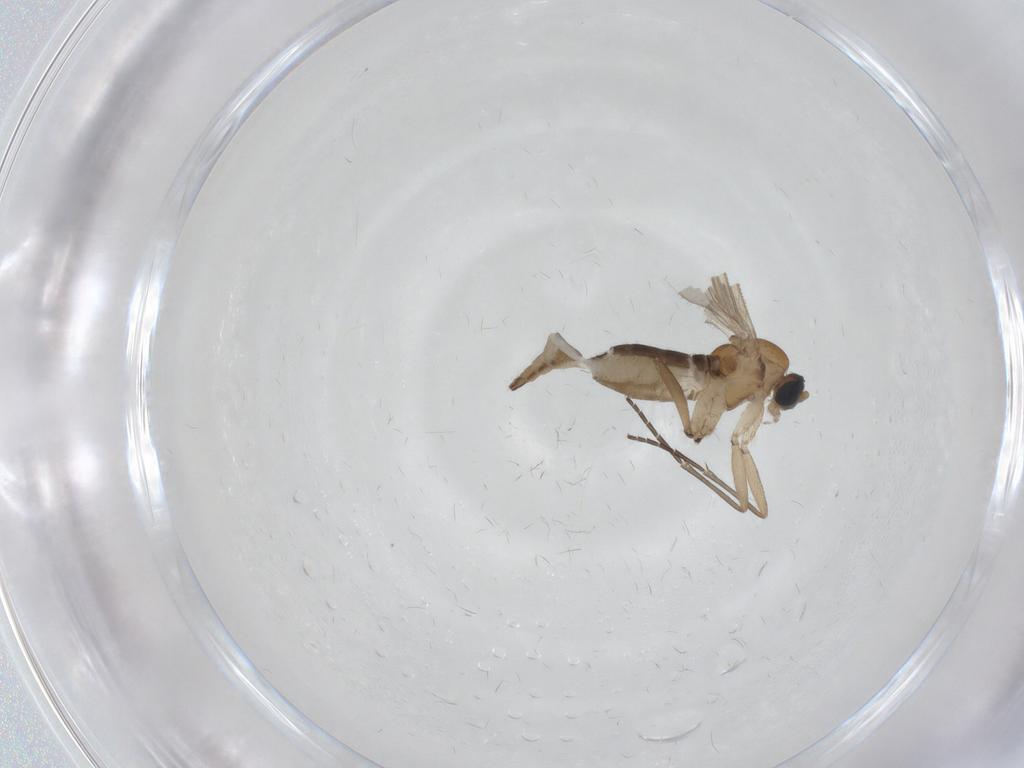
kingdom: Animalia
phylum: Arthropoda
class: Insecta
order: Diptera
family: Sciaridae
